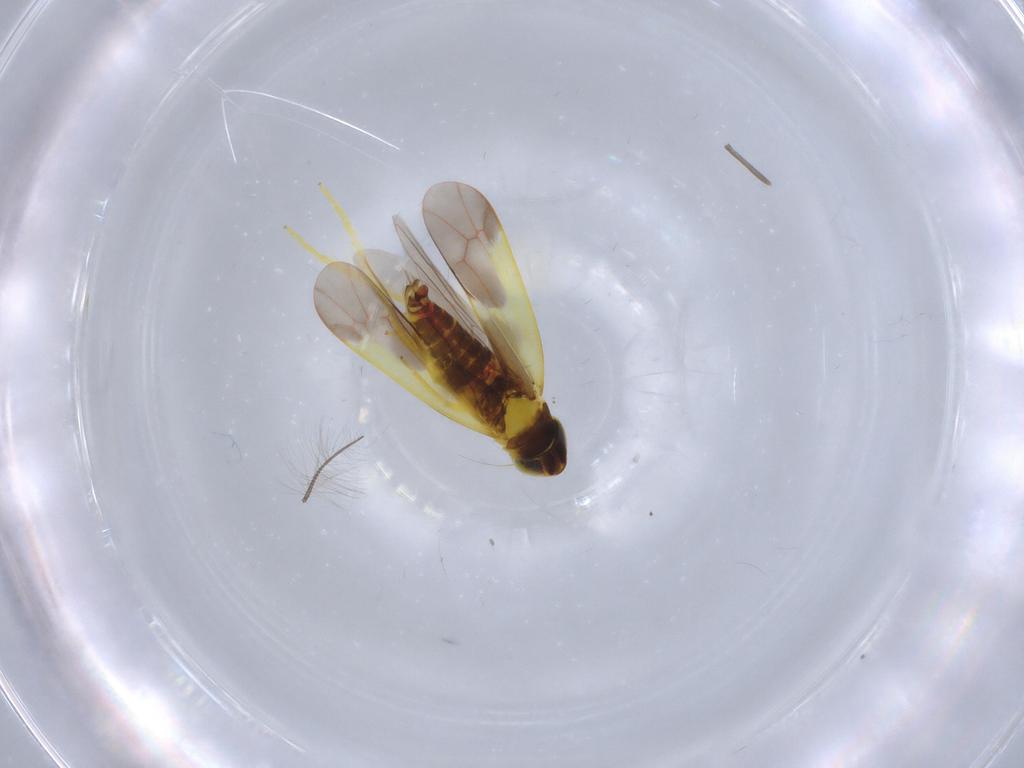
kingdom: Animalia
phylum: Arthropoda
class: Insecta
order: Hemiptera
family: Cicadellidae
